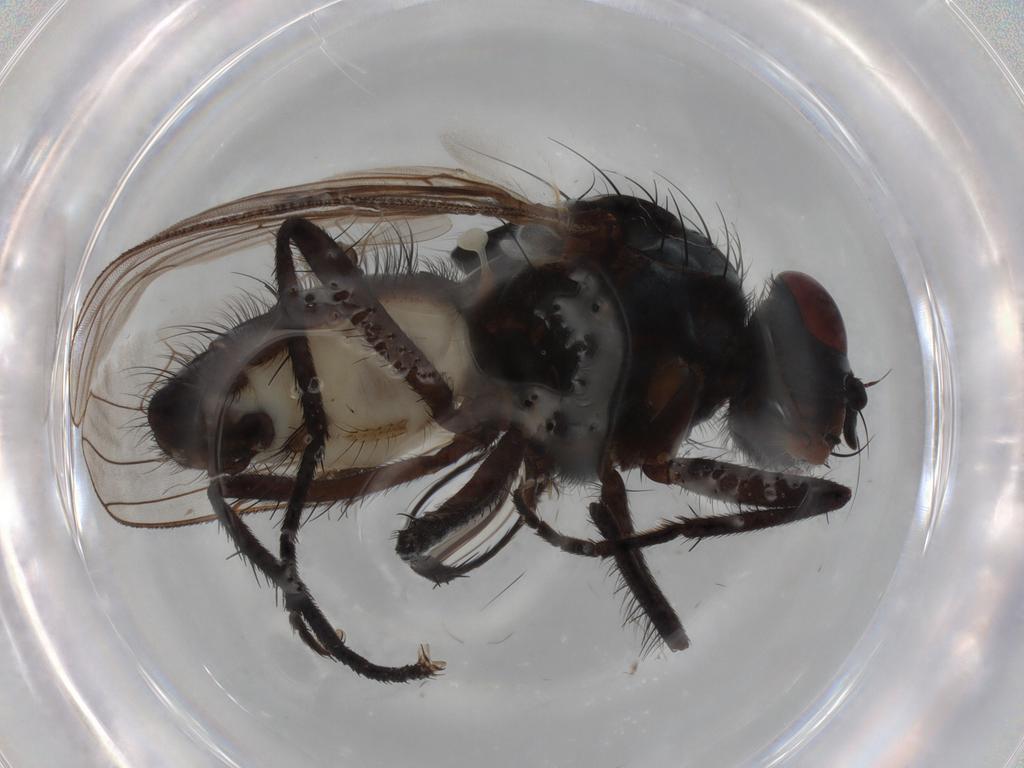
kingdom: Animalia
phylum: Arthropoda
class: Insecta
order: Diptera
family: Anthomyiidae
